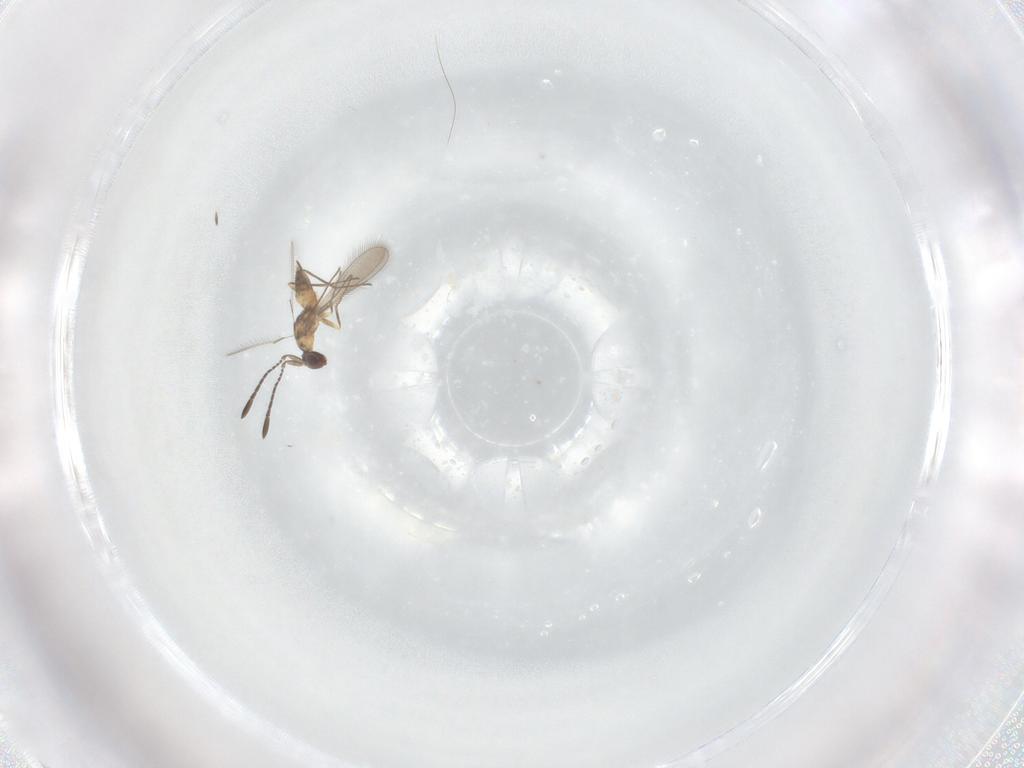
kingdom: Animalia
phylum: Arthropoda
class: Insecta
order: Hymenoptera
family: Mymaridae
